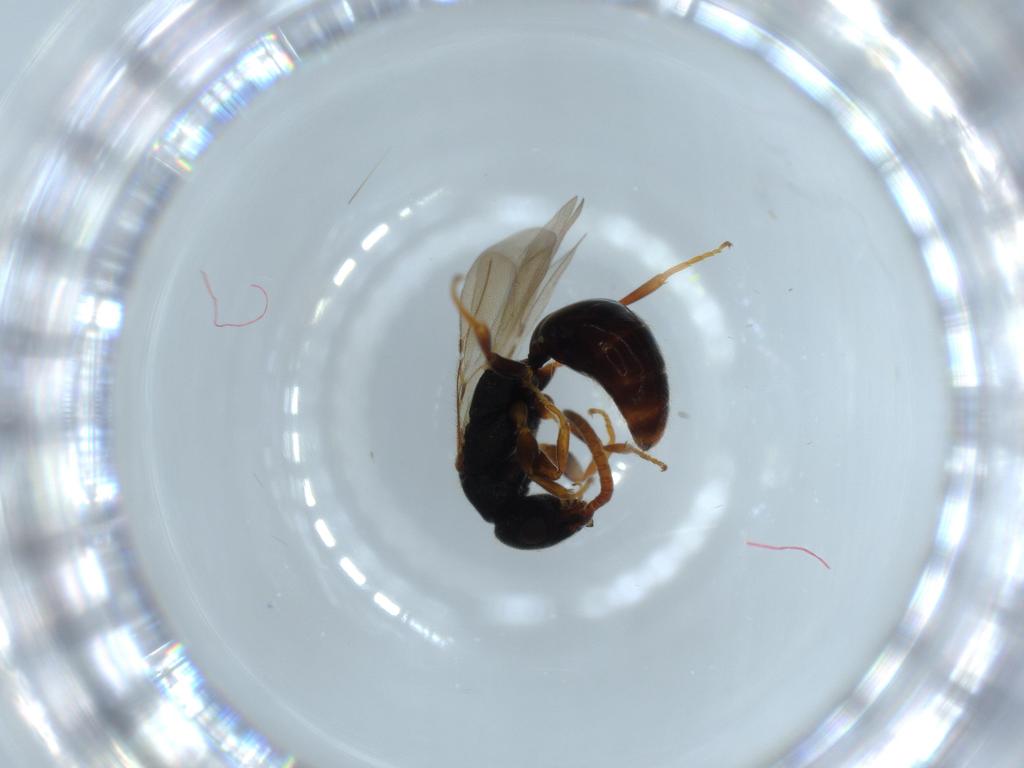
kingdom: Animalia
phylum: Arthropoda
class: Insecta
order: Hymenoptera
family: Bethylidae
